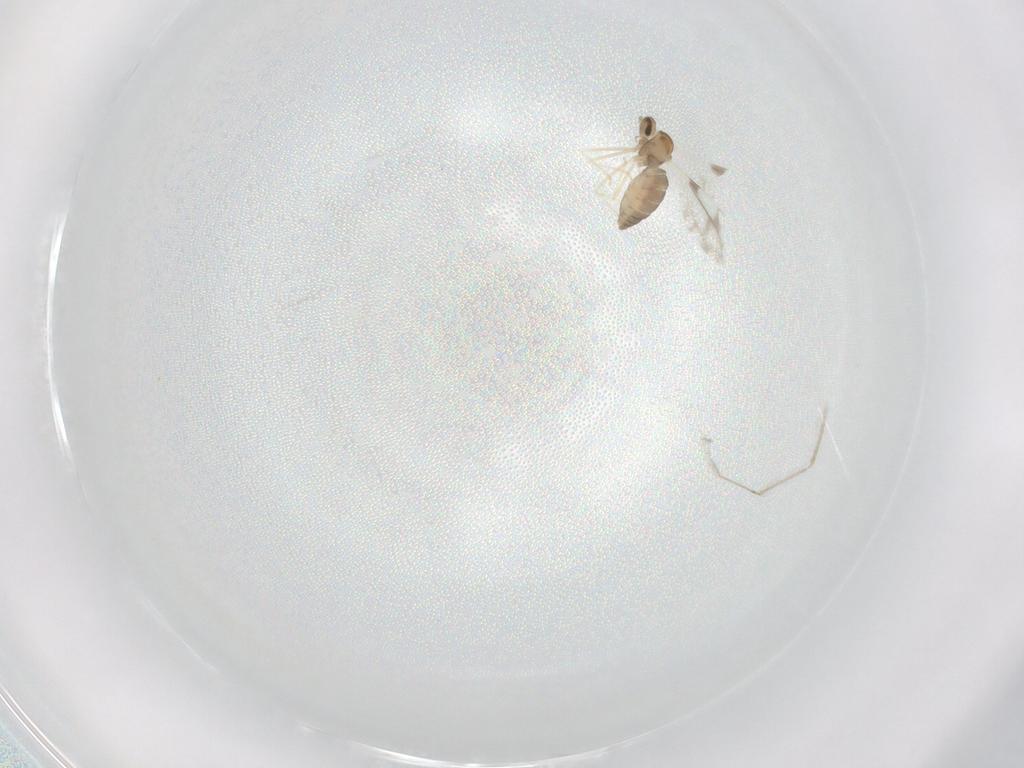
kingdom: Animalia
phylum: Arthropoda
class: Insecta
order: Diptera
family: Cecidomyiidae
